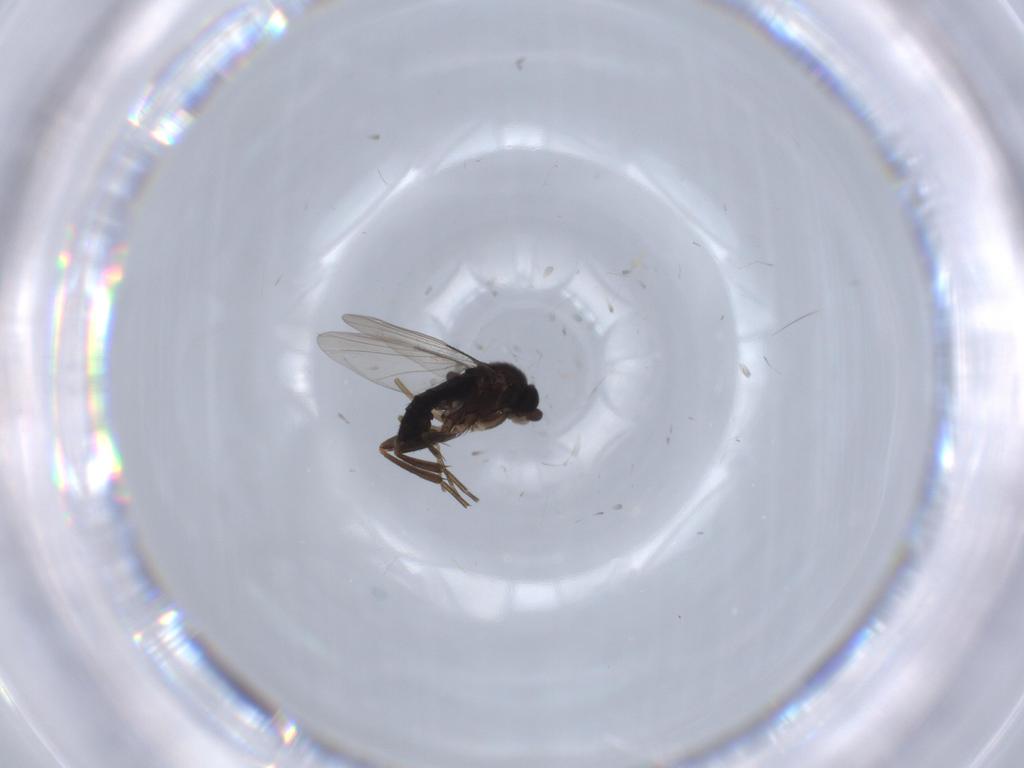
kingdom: Animalia
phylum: Arthropoda
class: Insecta
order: Diptera
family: Phoridae
